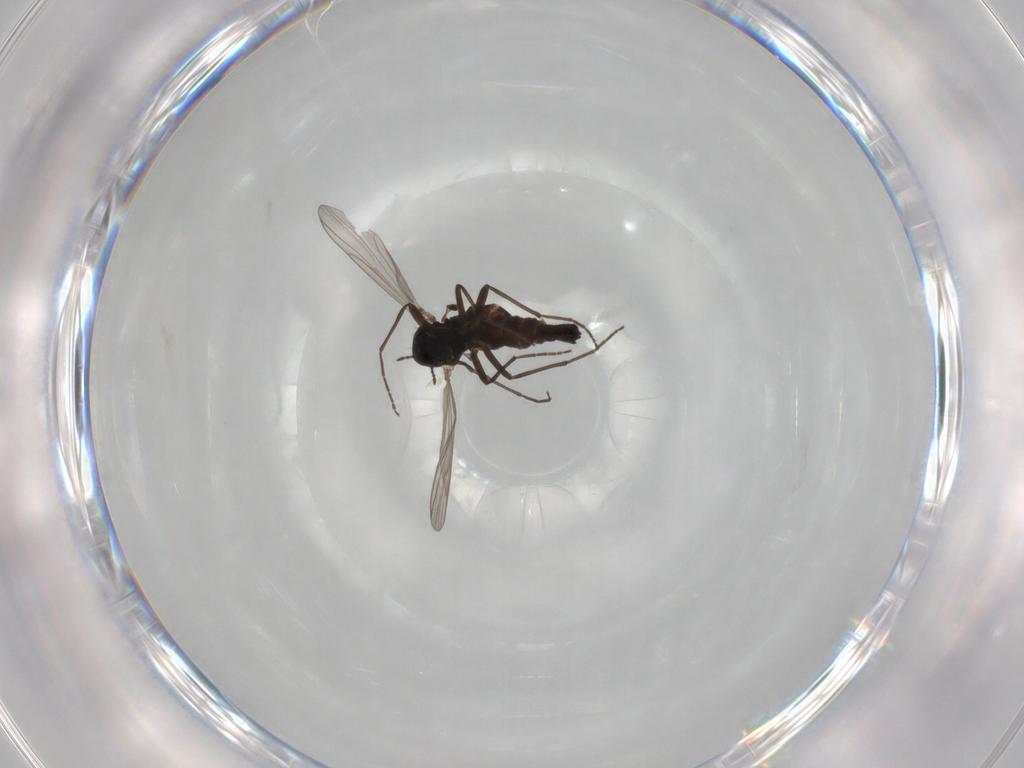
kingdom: Animalia
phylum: Arthropoda
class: Insecta
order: Diptera
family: Chironomidae
